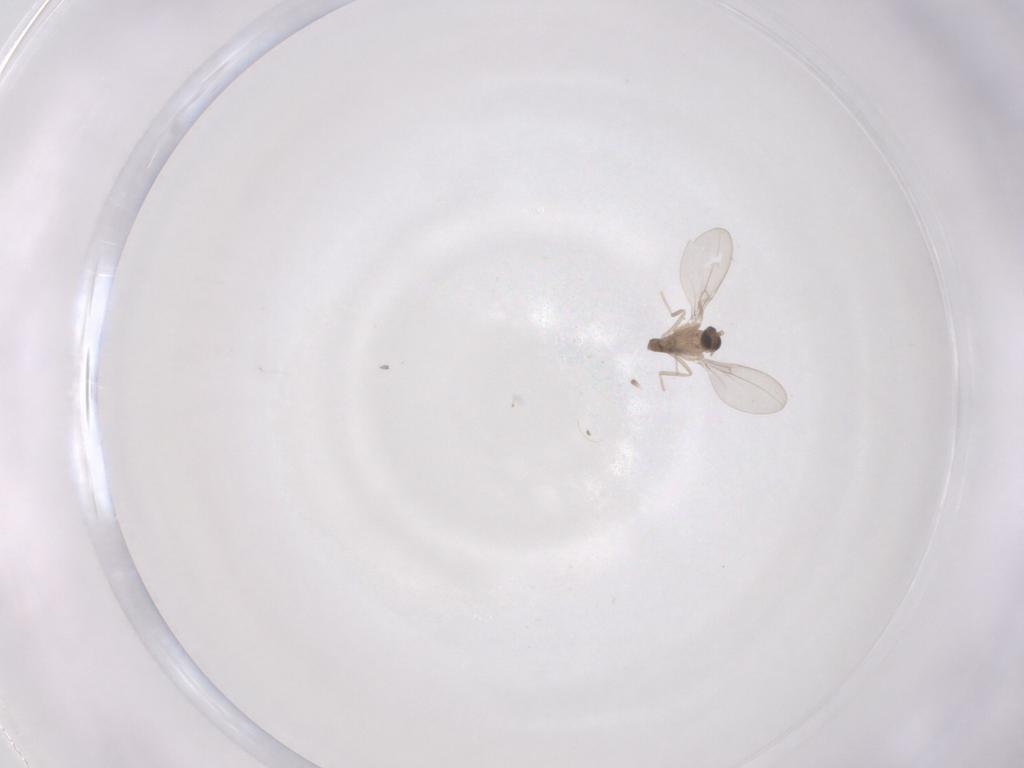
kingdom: Animalia
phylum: Arthropoda
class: Insecta
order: Diptera
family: Cecidomyiidae
